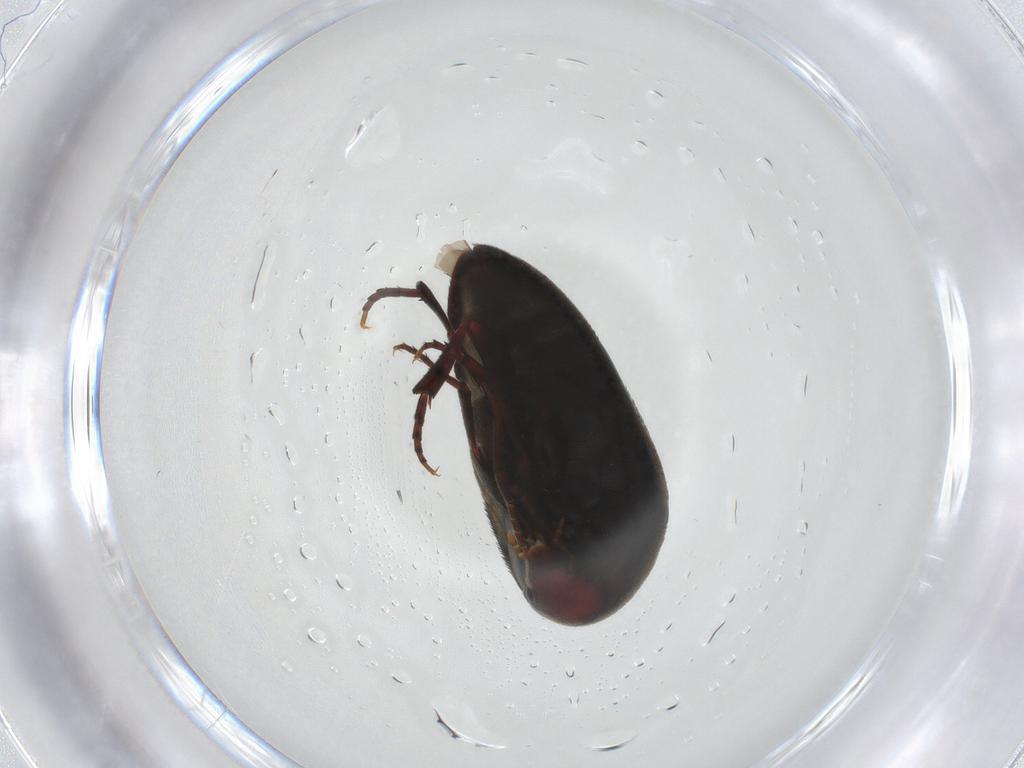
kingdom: Animalia
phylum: Arthropoda
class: Insecta
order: Coleoptera
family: Eucinetidae
